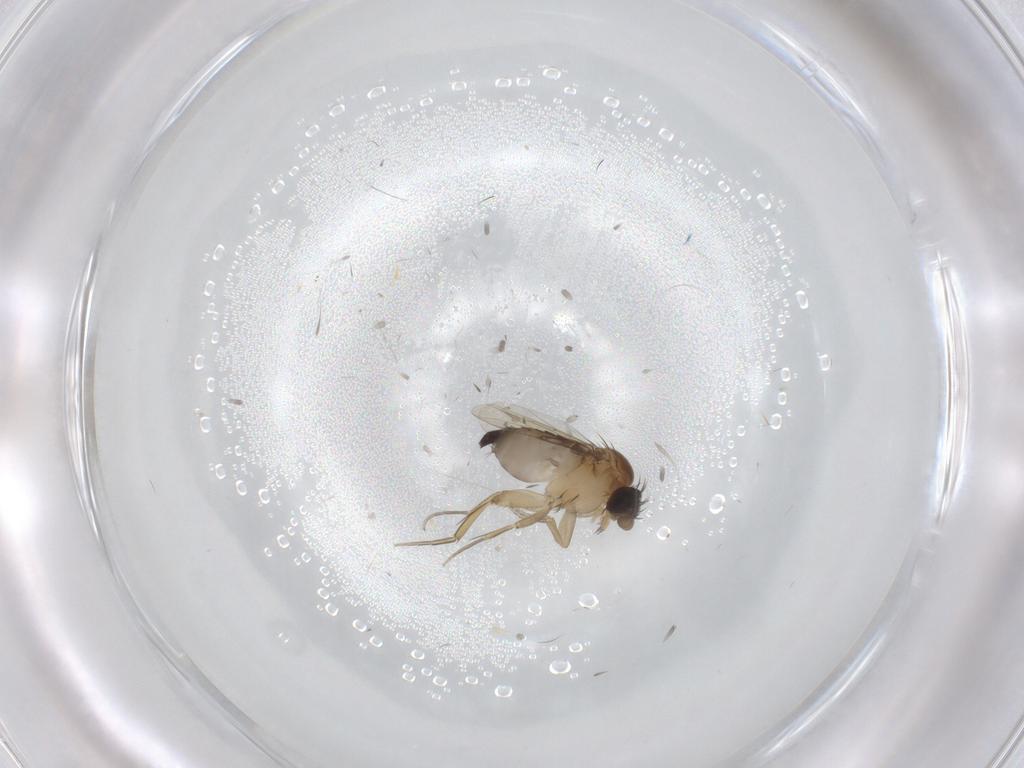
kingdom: Animalia
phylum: Arthropoda
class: Insecta
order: Diptera
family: Phoridae
